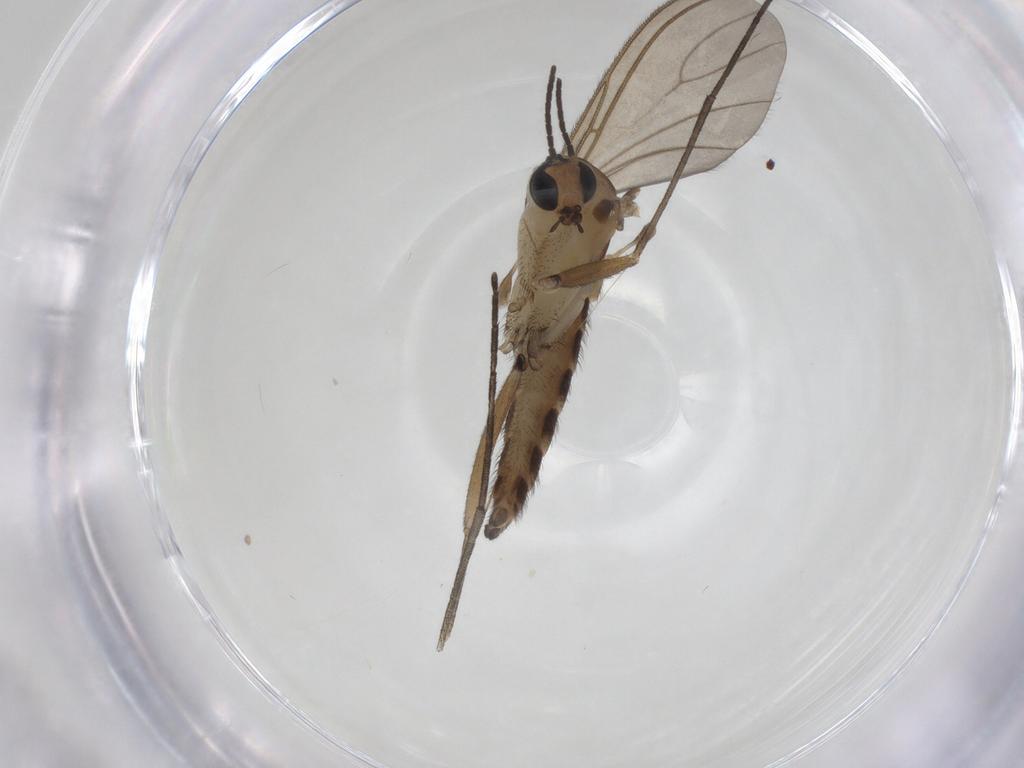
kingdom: Animalia
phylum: Arthropoda
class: Insecta
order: Diptera
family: Sciaridae
